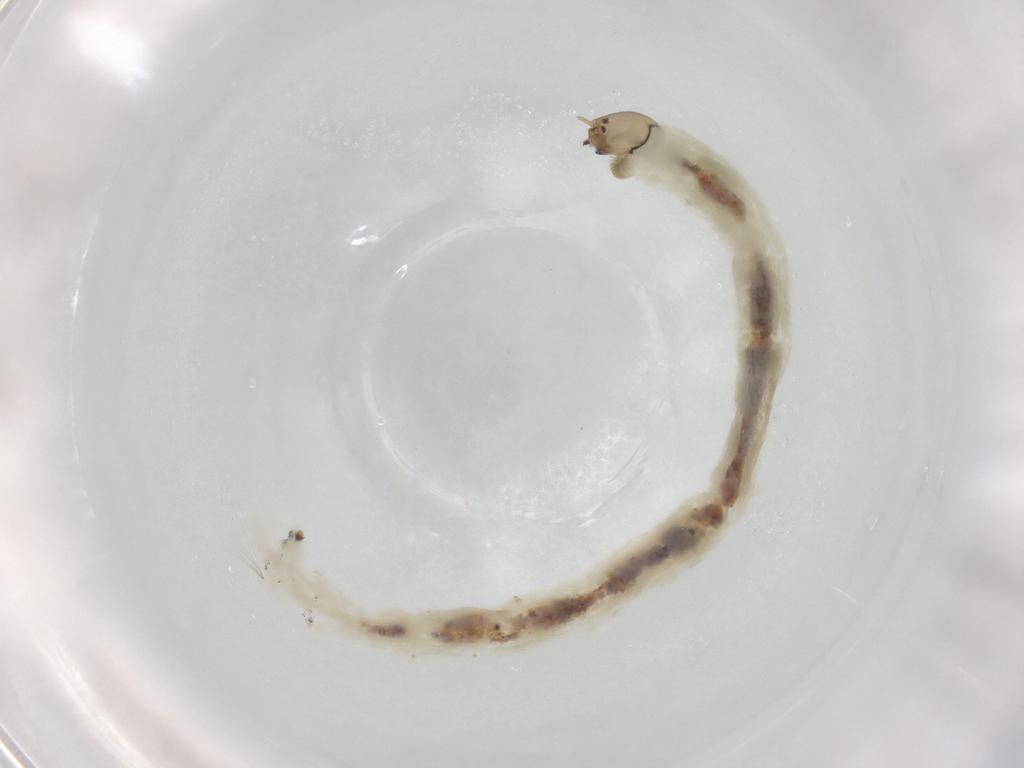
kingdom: Animalia
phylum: Arthropoda
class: Insecta
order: Diptera
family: Chironomidae
